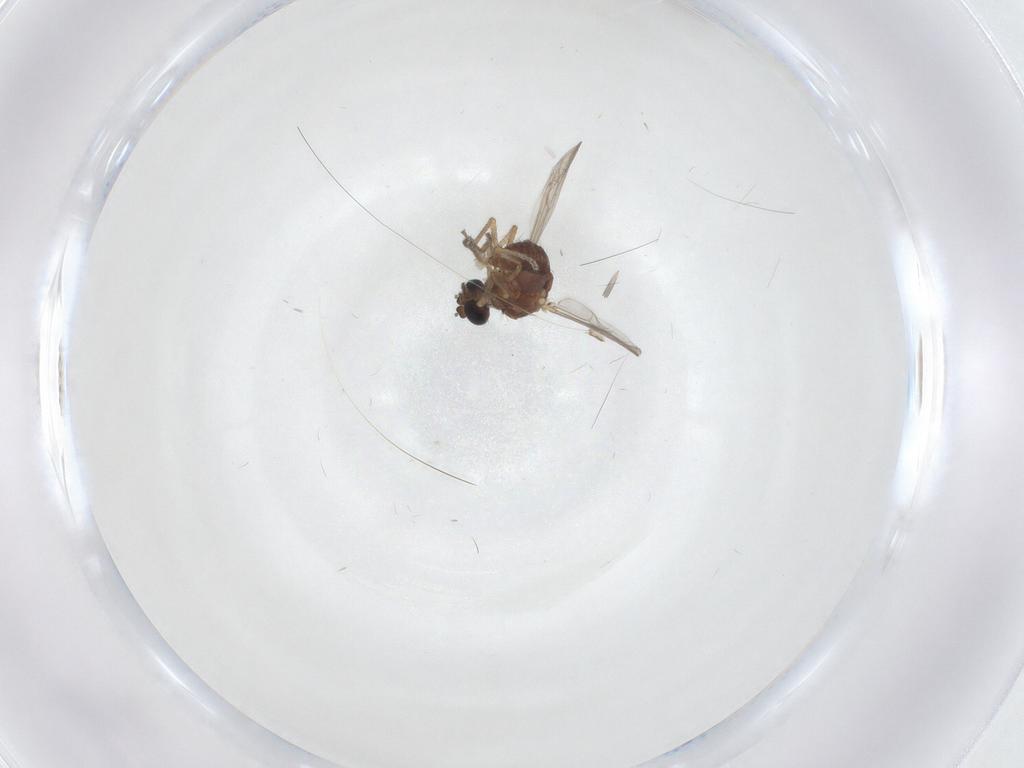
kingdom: Animalia
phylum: Arthropoda
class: Insecta
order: Diptera
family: Ceratopogonidae
